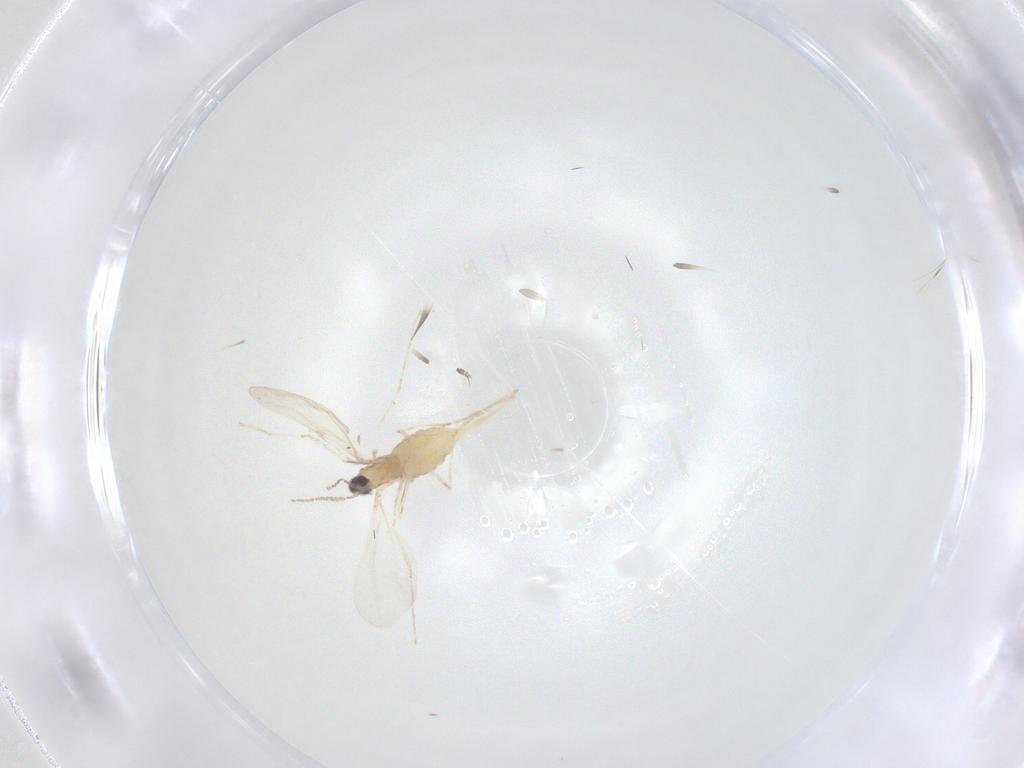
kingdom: Animalia
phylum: Arthropoda
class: Insecta
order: Diptera
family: Cecidomyiidae
